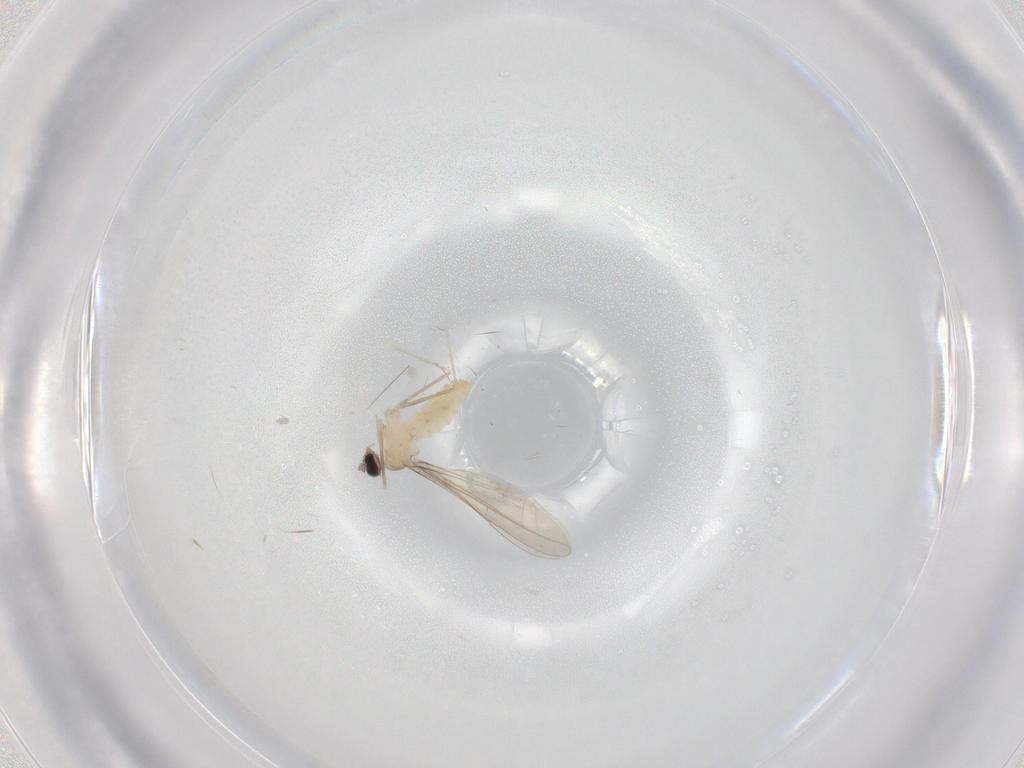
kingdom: Animalia
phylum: Arthropoda
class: Insecta
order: Diptera
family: Cecidomyiidae
